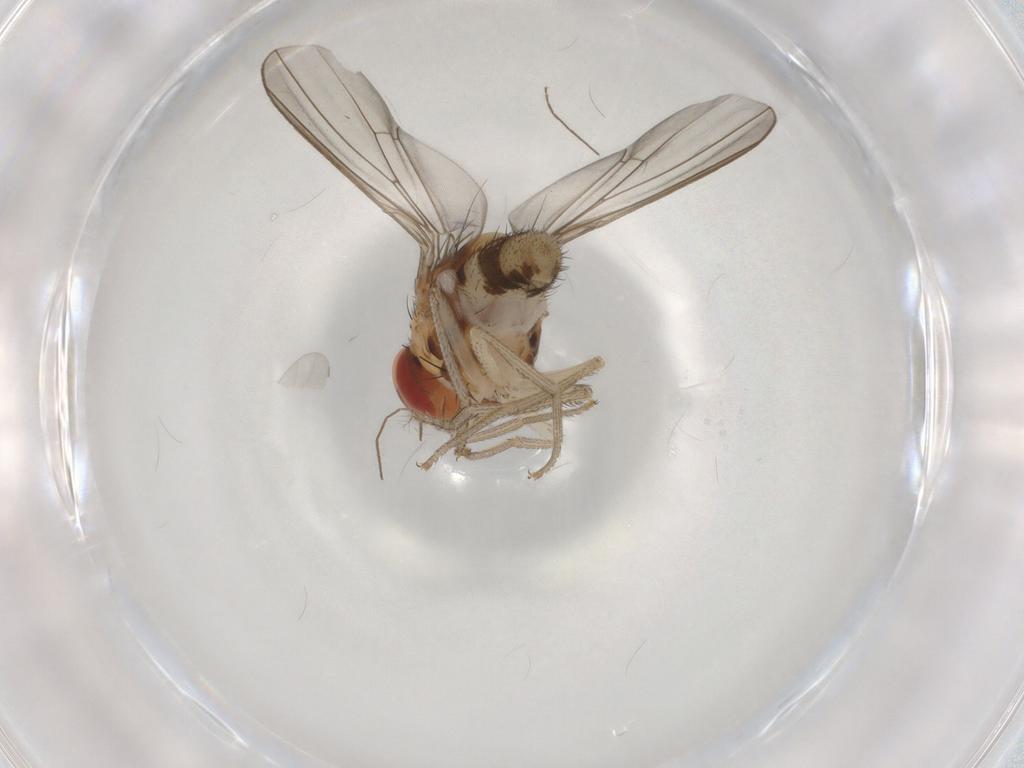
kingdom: Animalia
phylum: Arthropoda
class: Insecta
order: Diptera
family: Drosophilidae
